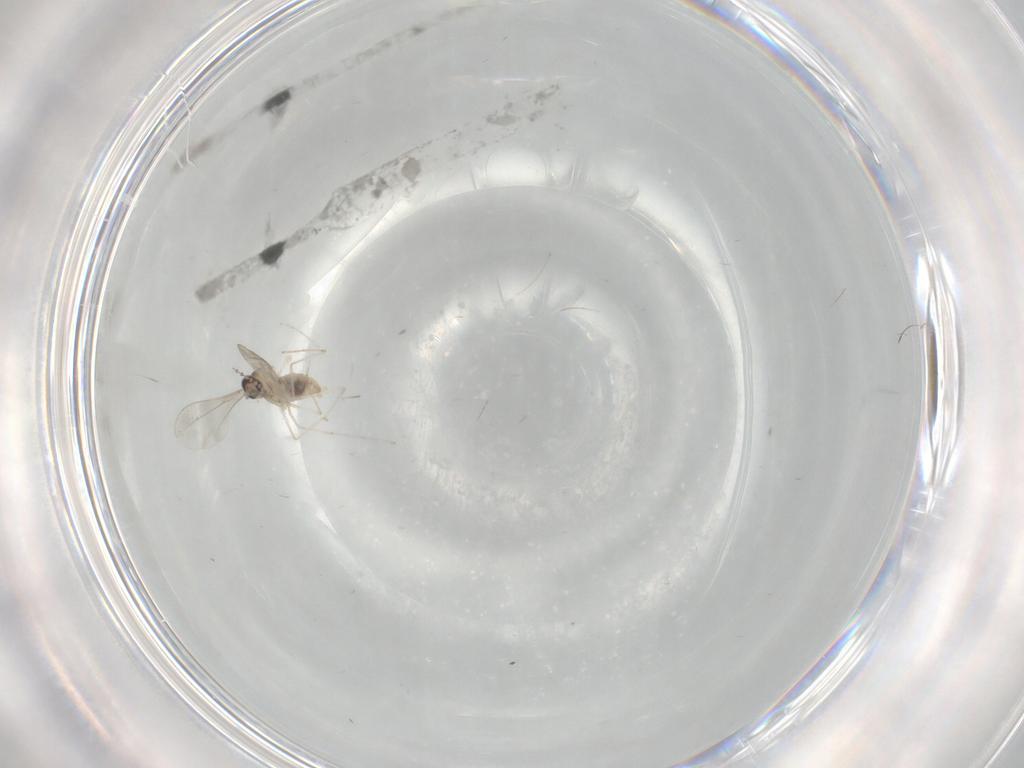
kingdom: Animalia
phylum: Arthropoda
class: Insecta
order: Diptera
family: Cecidomyiidae
